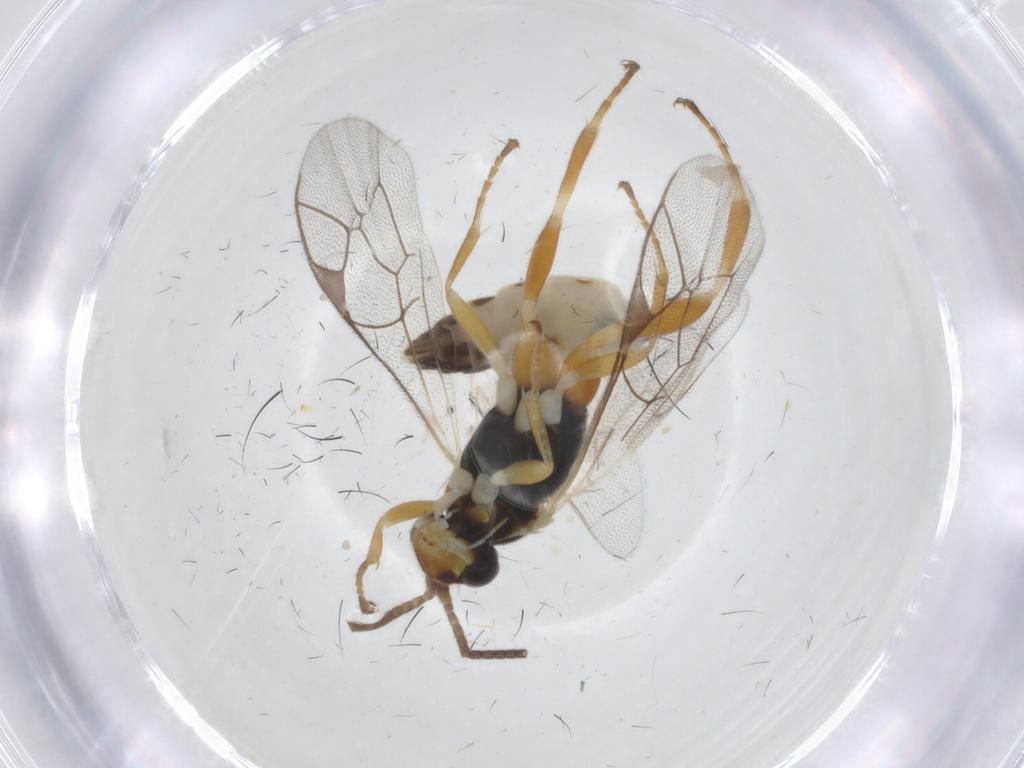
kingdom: Animalia
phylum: Arthropoda
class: Insecta
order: Hymenoptera
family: Ichneumonidae
